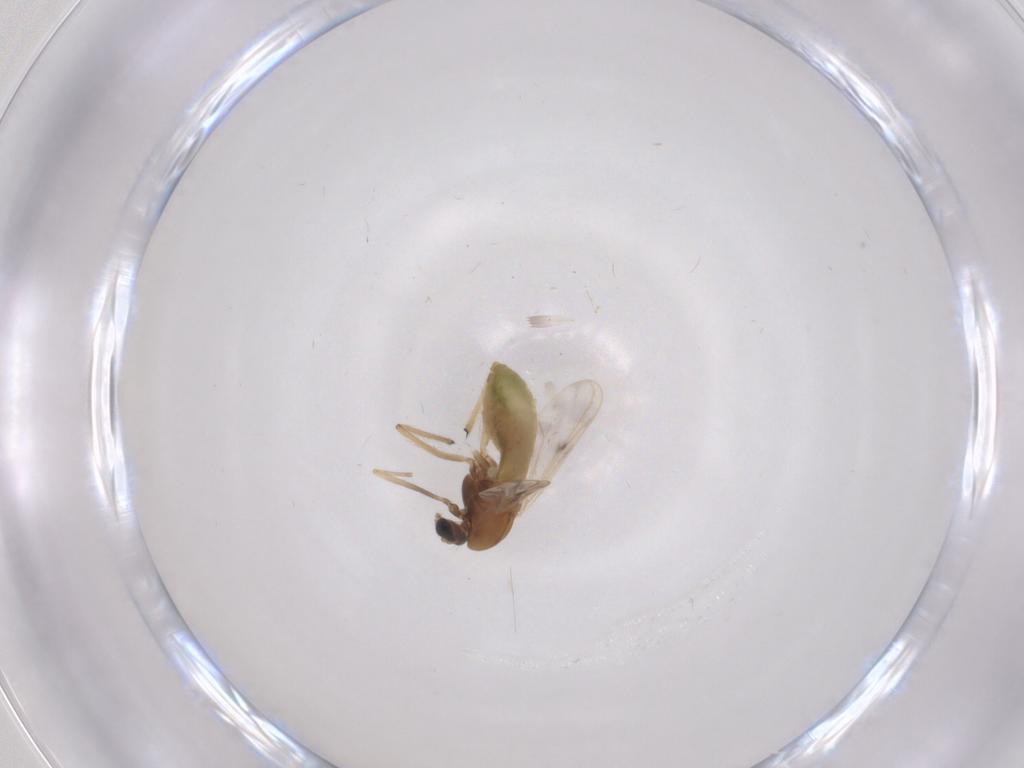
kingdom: Animalia
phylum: Arthropoda
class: Insecta
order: Diptera
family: Chironomidae
